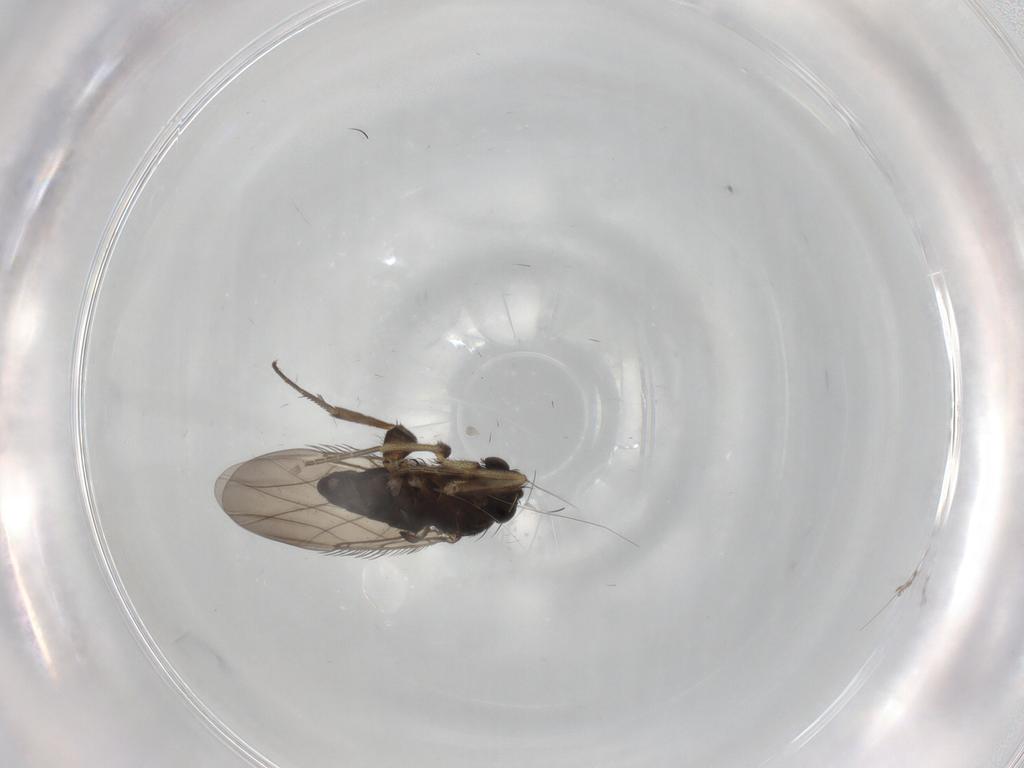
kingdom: Animalia
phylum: Arthropoda
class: Insecta
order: Diptera
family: Phoridae
